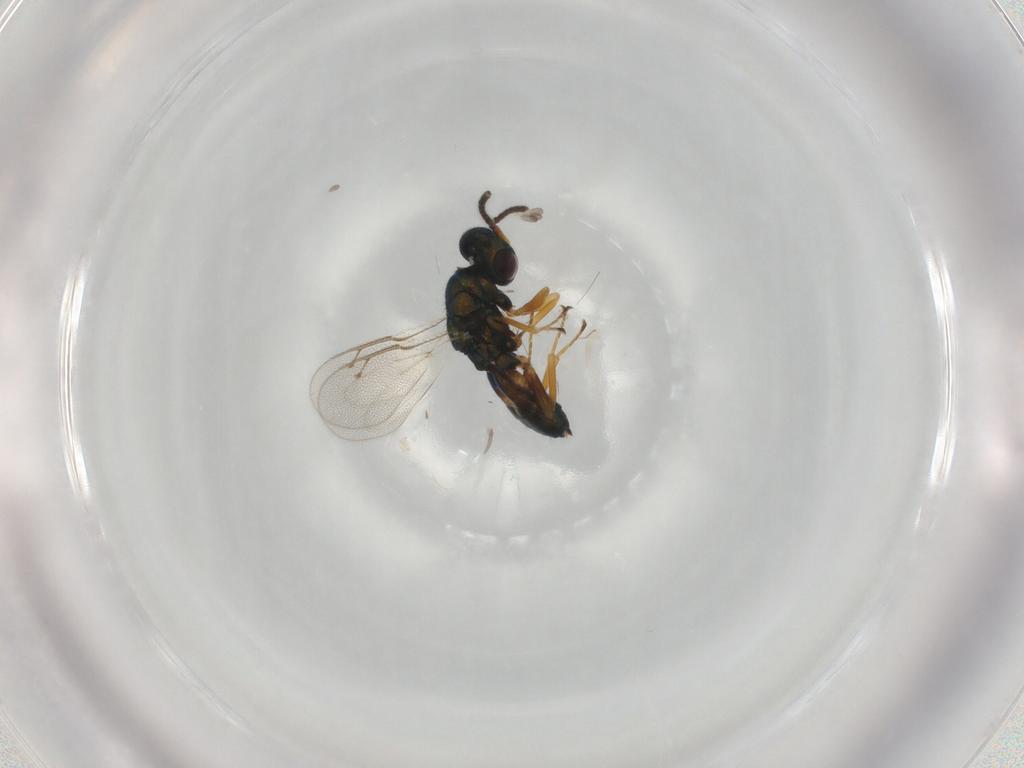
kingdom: Animalia
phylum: Arthropoda
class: Insecta
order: Hymenoptera
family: Pteromalidae
